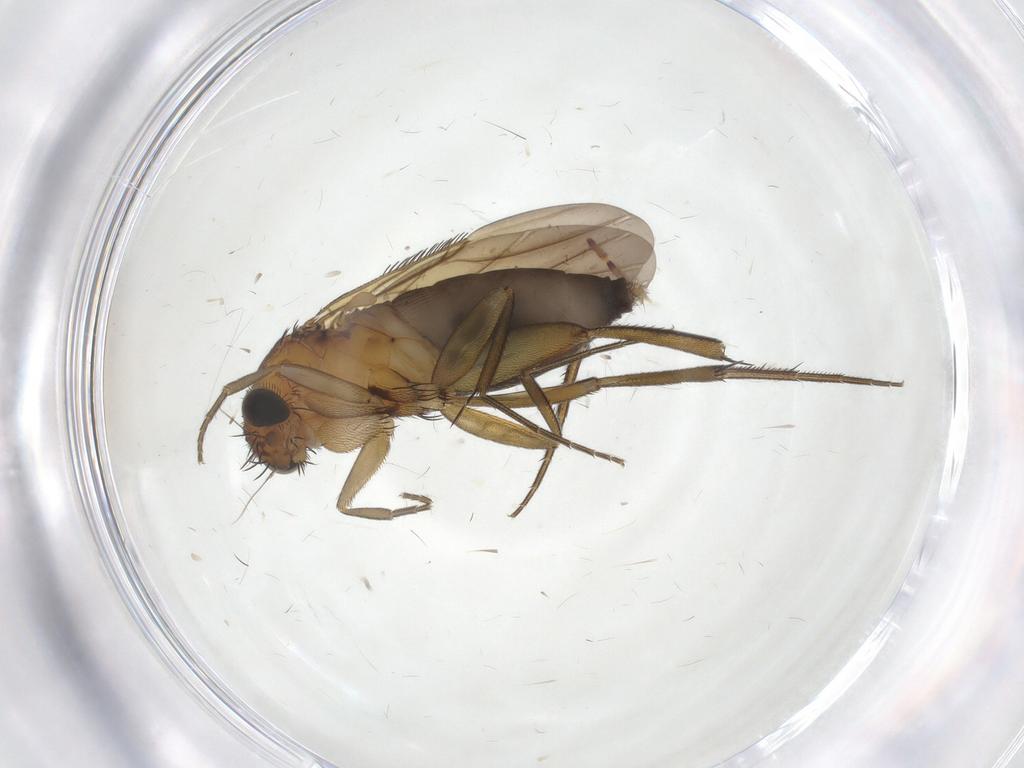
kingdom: Animalia
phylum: Arthropoda
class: Insecta
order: Diptera
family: Phoridae
